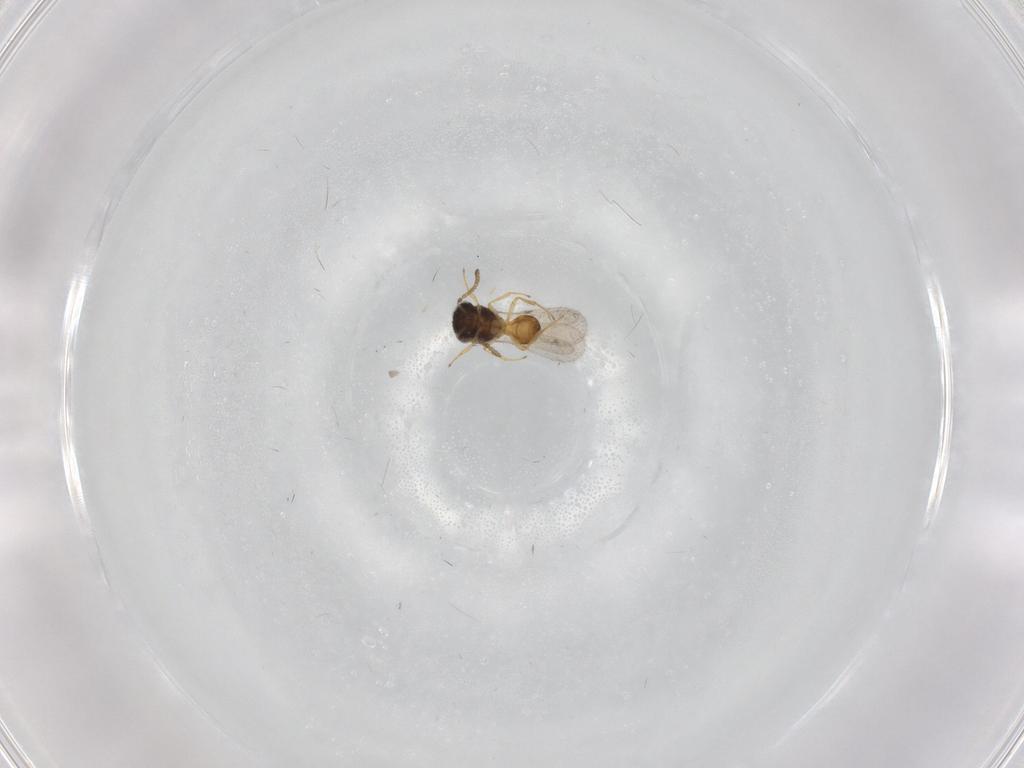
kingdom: Animalia
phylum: Arthropoda
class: Insecta
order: Hymenoptera
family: Scelionidae
